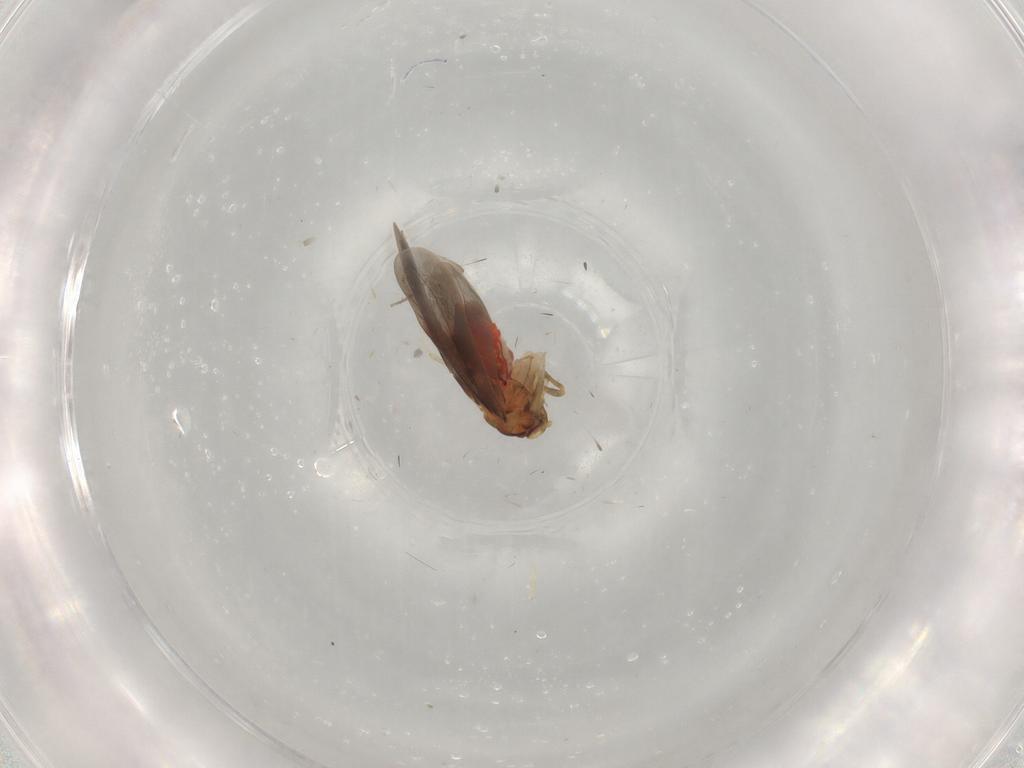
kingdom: Animalia
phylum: Arthropoda
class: Insecta
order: Hemiptera
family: Aleyrodidae
